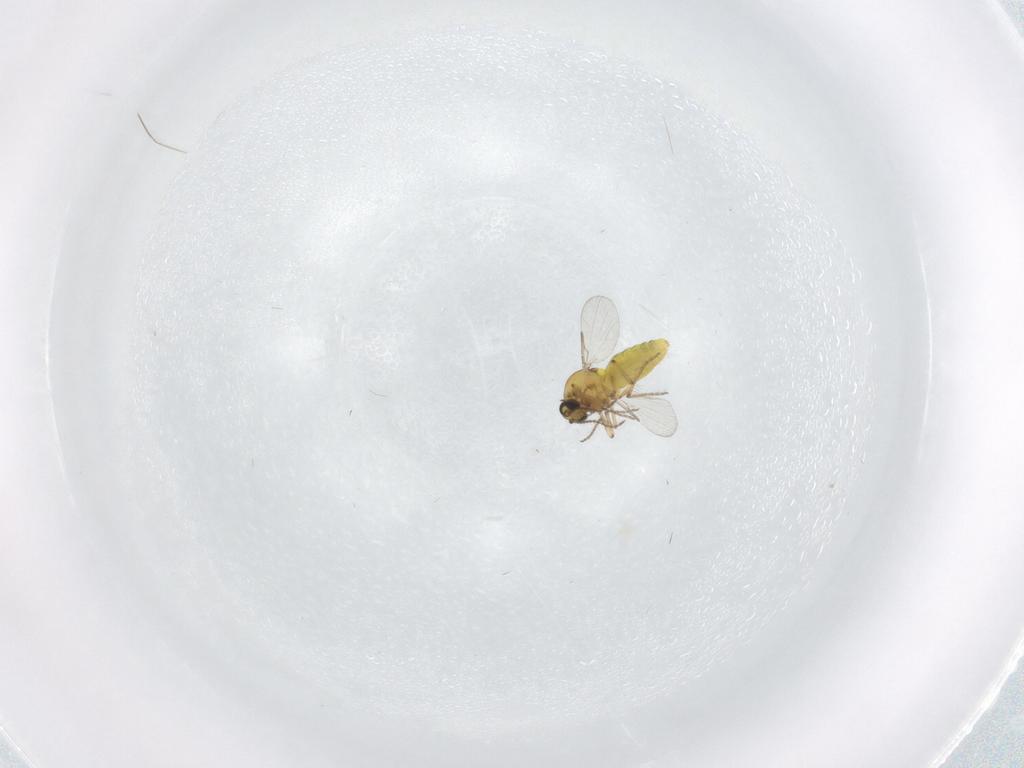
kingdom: Animalia
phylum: Arthropoda
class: Insecta
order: Diptera
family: Ceratopogonidae
